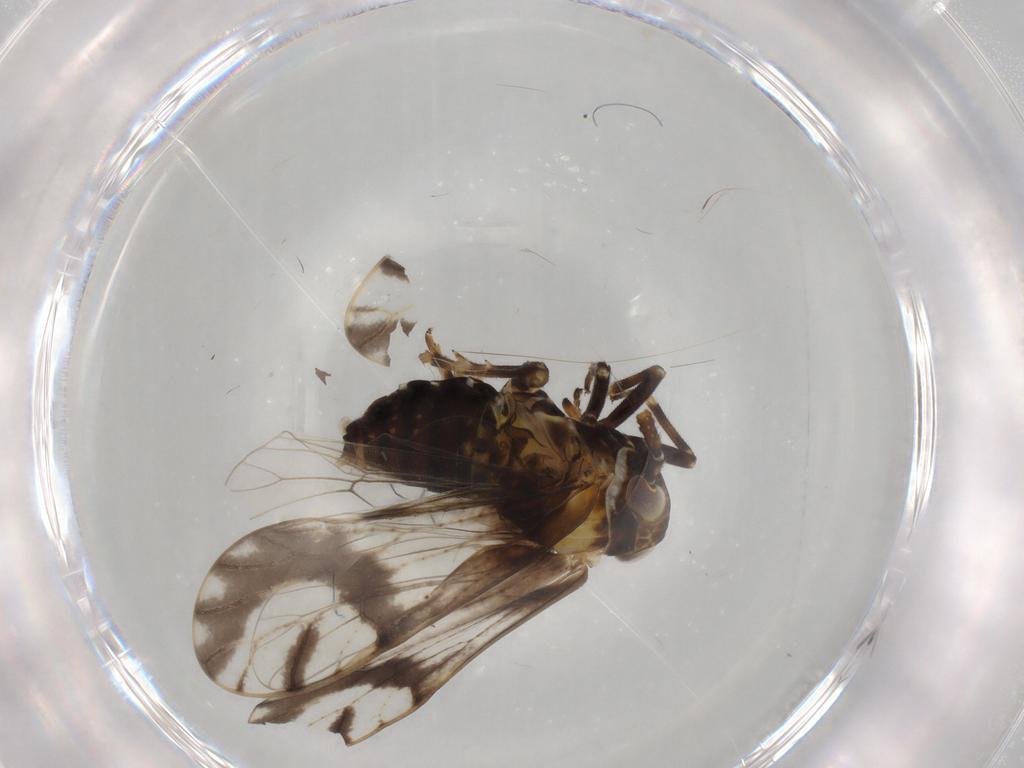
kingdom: Animalia
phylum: Arthropoda
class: Insecta
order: Hemiptera
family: Delphacidae
